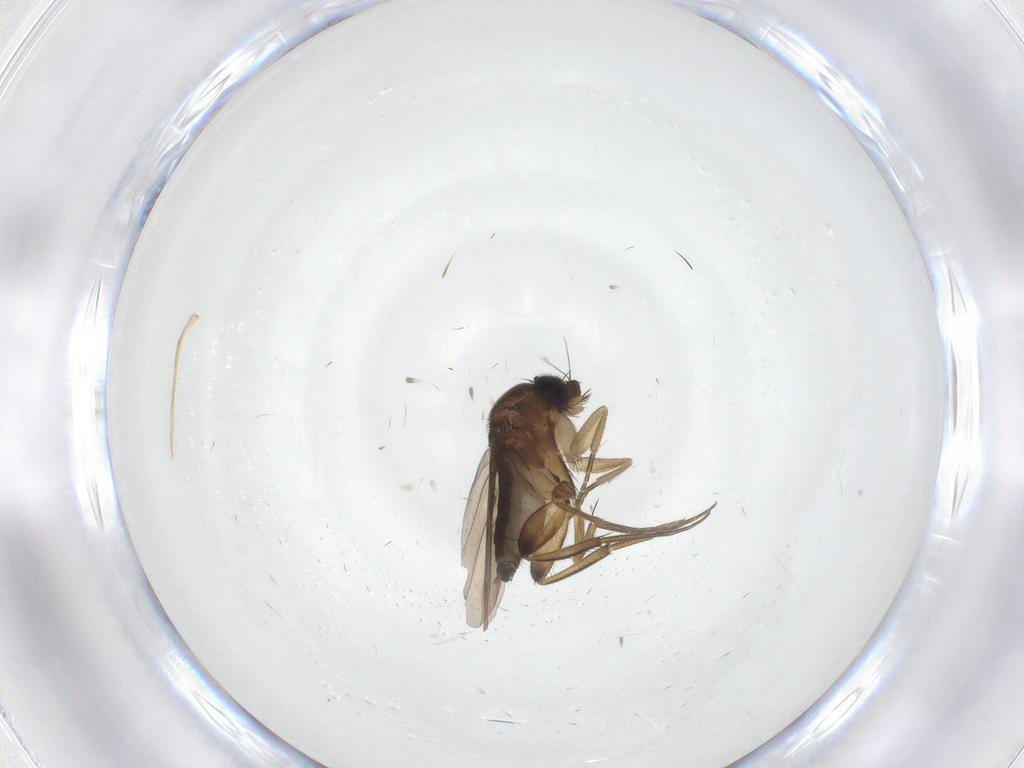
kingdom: Animalia
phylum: Arthropoda
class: Insecta
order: Diptera
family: Phoridae
